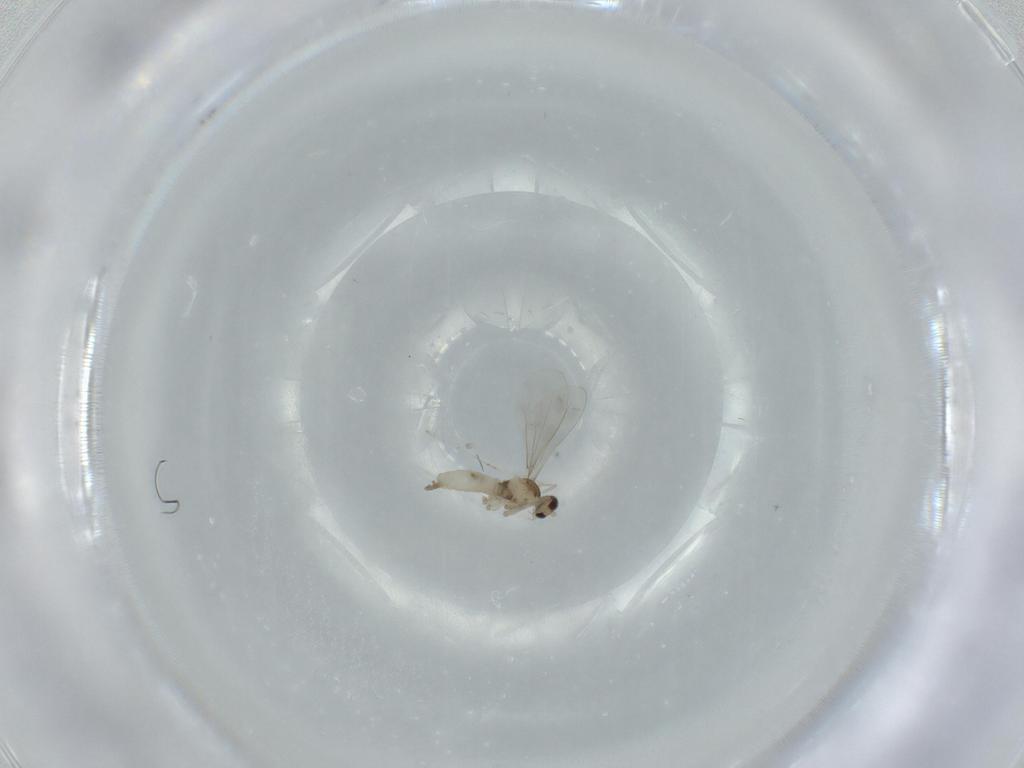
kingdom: Animalia
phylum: Arthropoda
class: Insecta
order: Diptera
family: Cecidomyiidae
